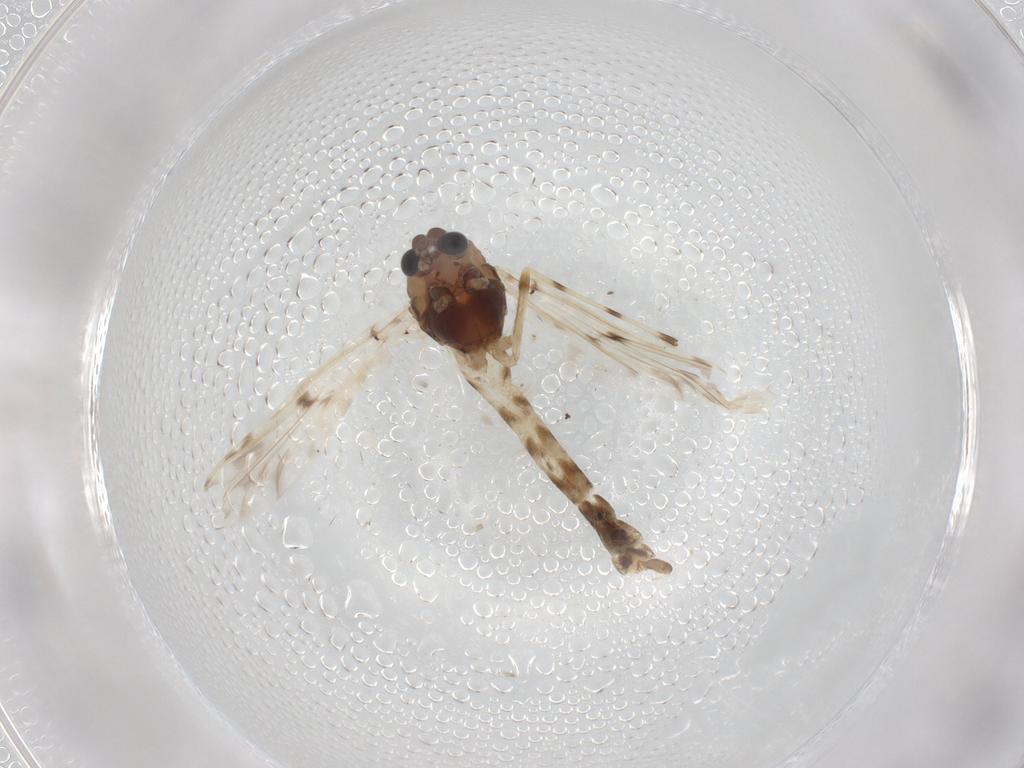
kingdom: Animalia
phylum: Arthropoda
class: Insecta
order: Diptera
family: Chironomidae
